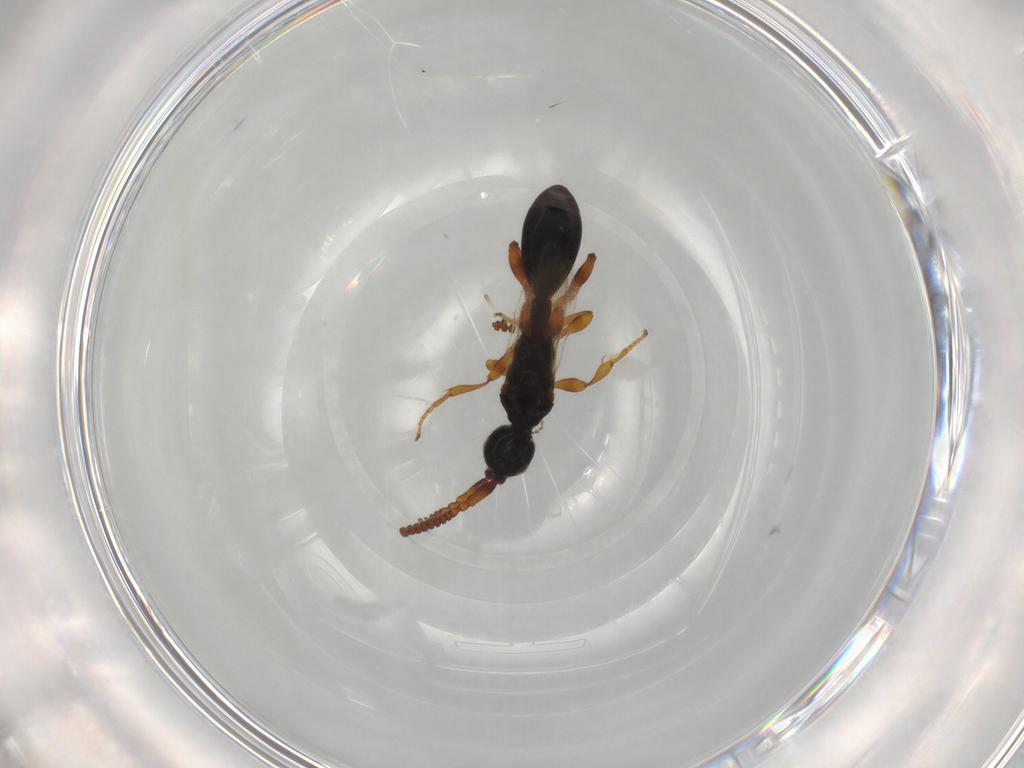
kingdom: Animalia
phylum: Arthropoda
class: Insecta
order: Hymenoptera
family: Vespidae
